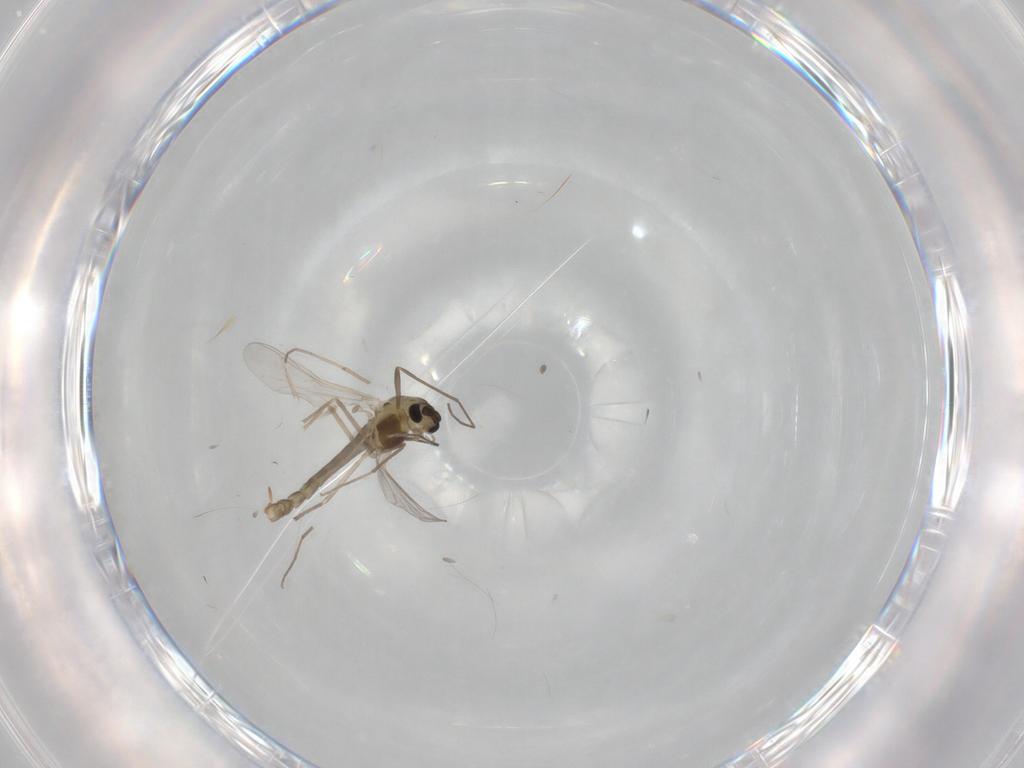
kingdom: Animalia
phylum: Arthropoda
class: Insecta
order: Diptera
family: Chironomidae
